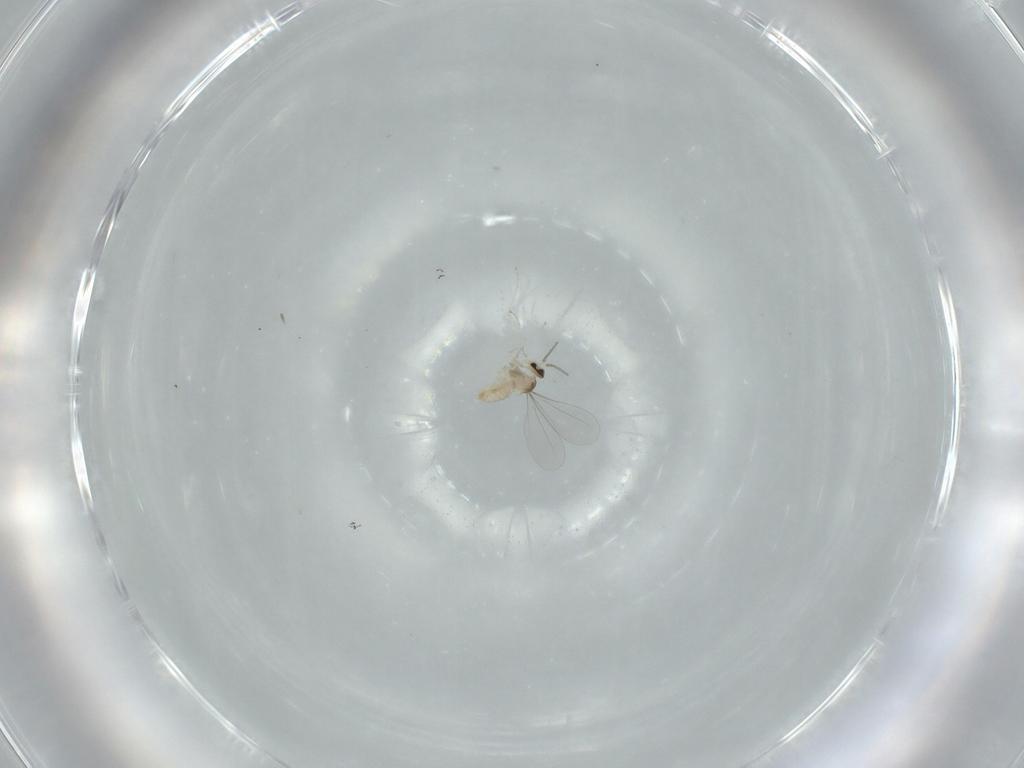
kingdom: Animalia
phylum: Arthropoda
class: Insecta
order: Diptera
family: Cecidomyiidae
